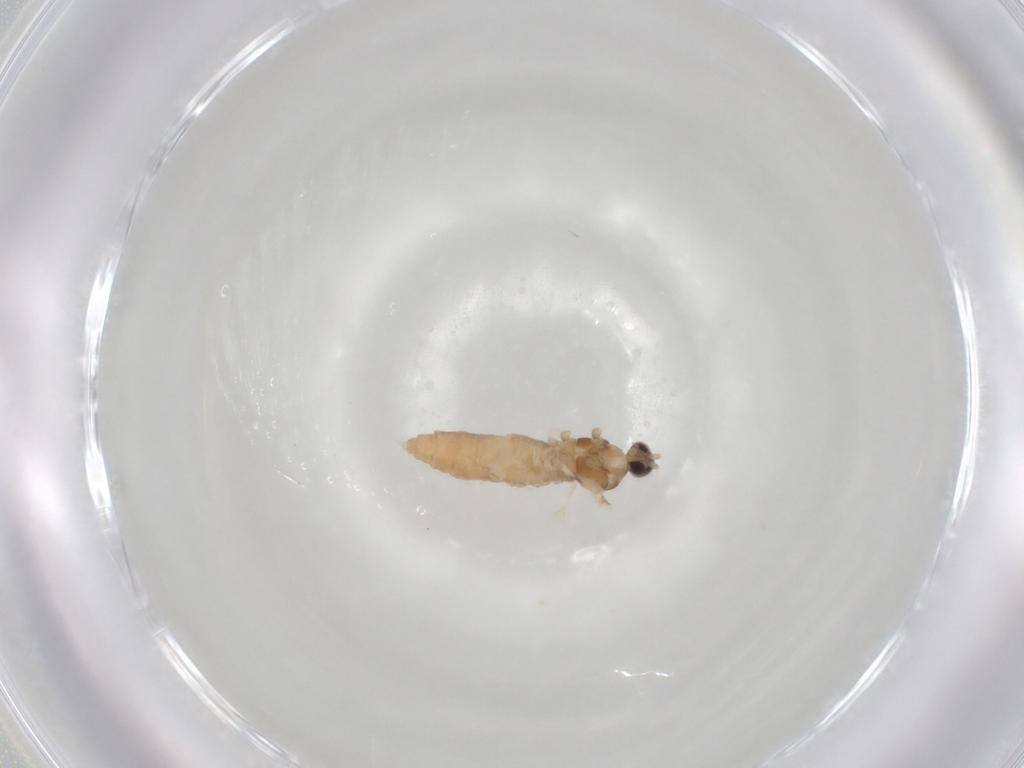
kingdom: Animalia
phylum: Arthropoda
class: Insecta
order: Diptera
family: Cecidomyiidae
